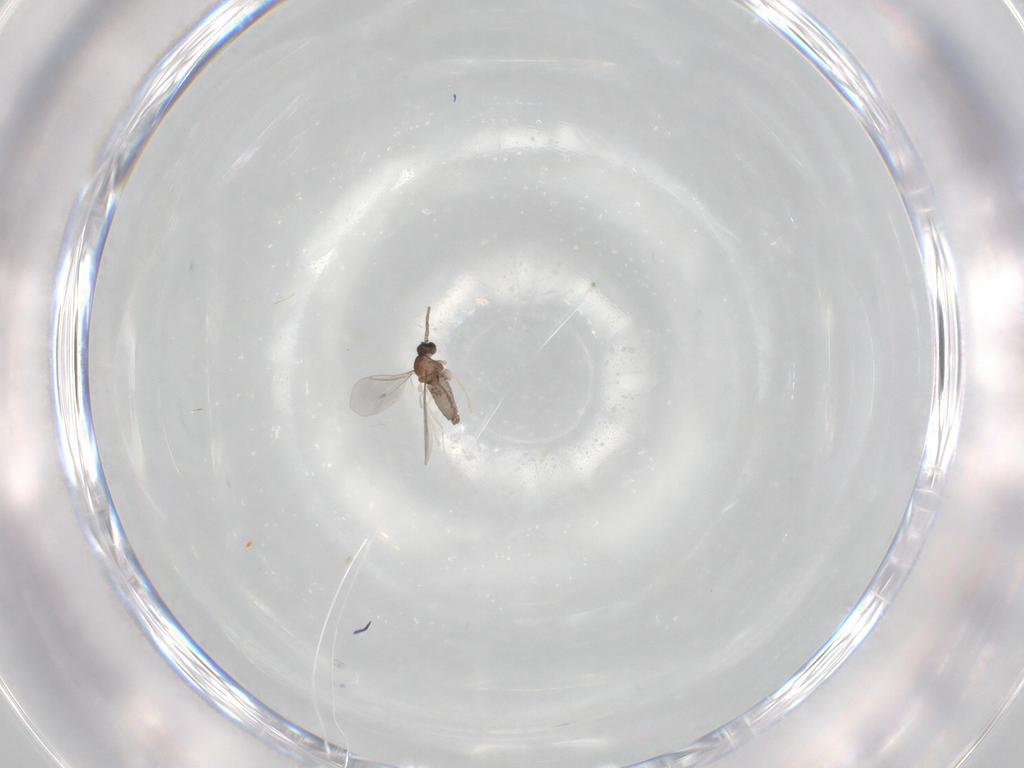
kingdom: Animalia
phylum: Arthropoda
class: Insecta
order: Diptera
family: Cecidomyiidae
